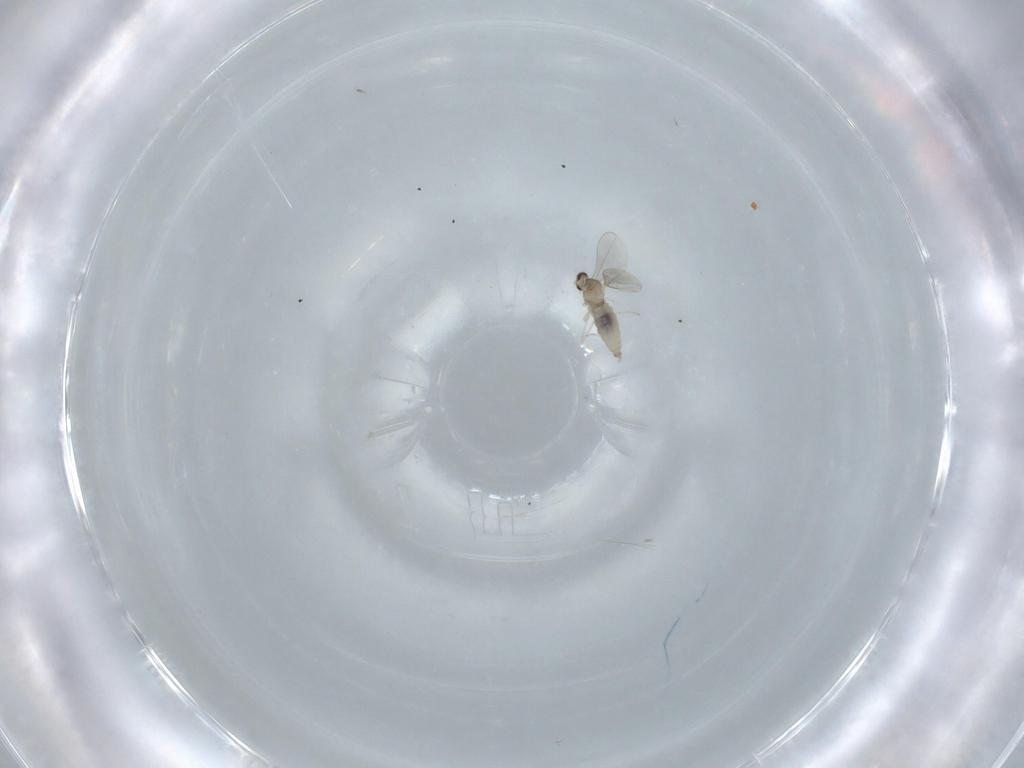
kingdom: Animalia
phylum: Arthropoda
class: Insecta
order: Diptera
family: Cecidomyiidae
